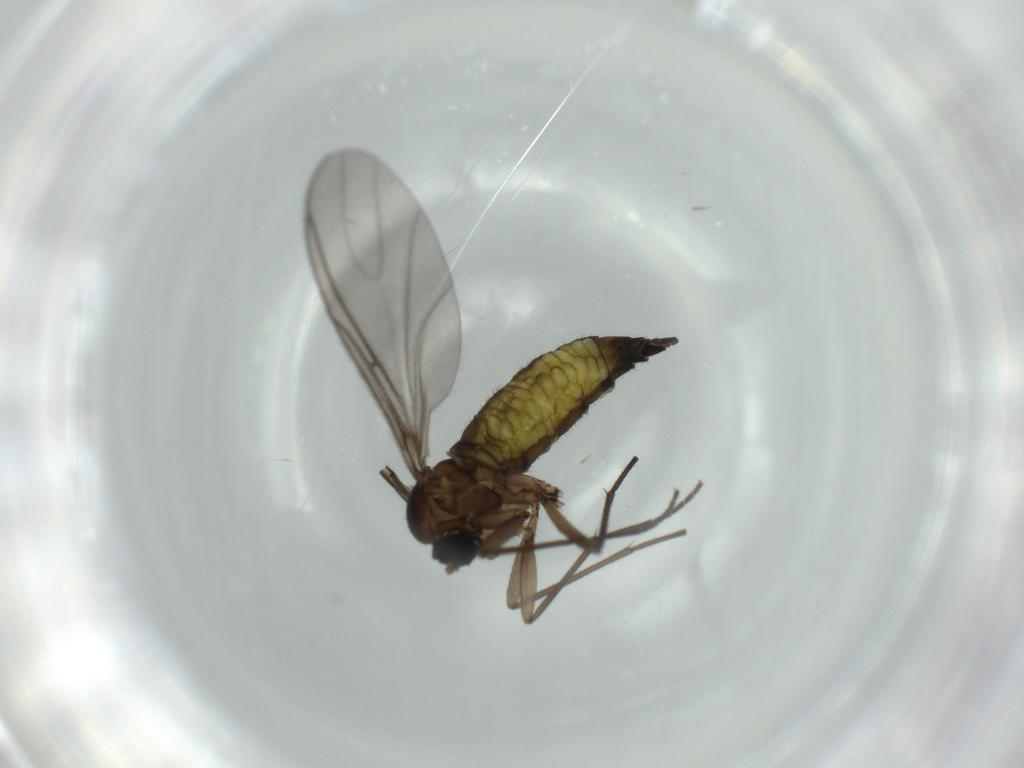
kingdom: Animalia
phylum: Arthropoda
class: Insecta
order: Diptera
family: Sciaridae
